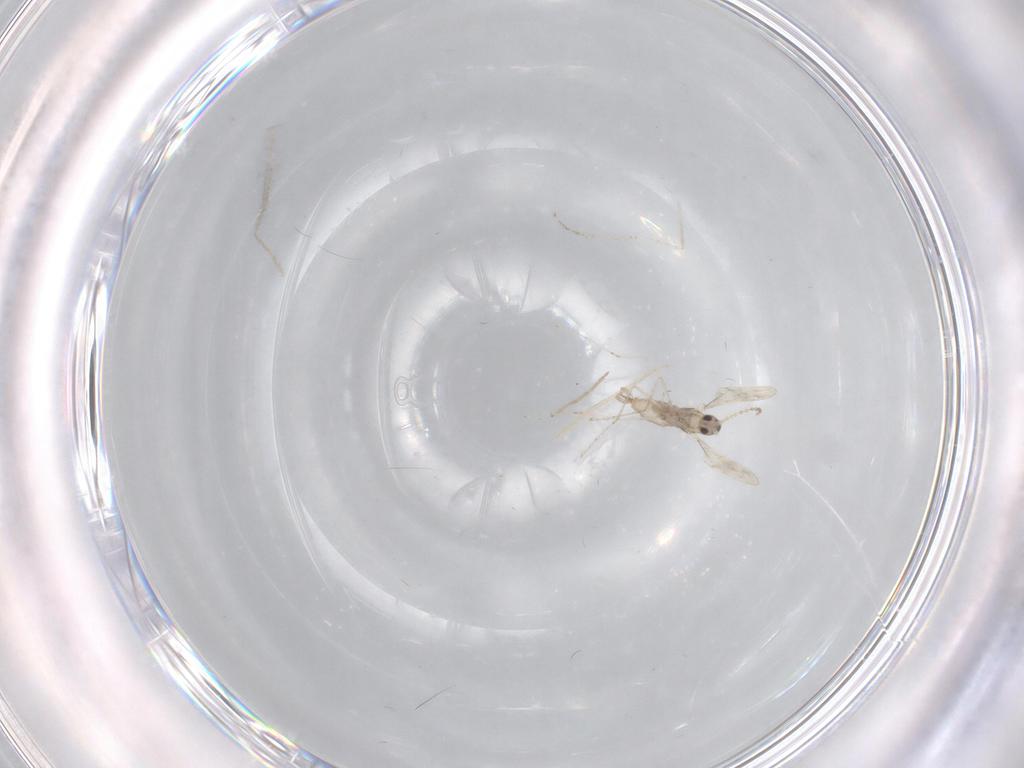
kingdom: Animalia
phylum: Arthropoda
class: Insecta
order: Diptera
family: Chironomidae
